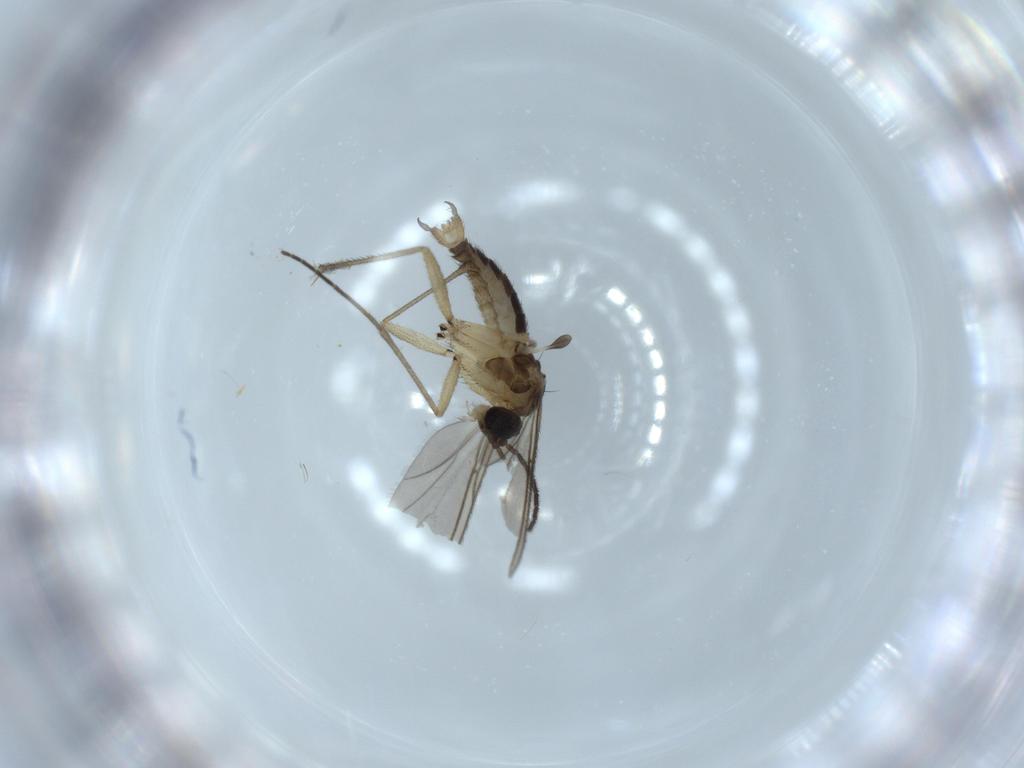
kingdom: Animalia
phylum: Arthropoda
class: Insecta
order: Diptera
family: Sciaridae
